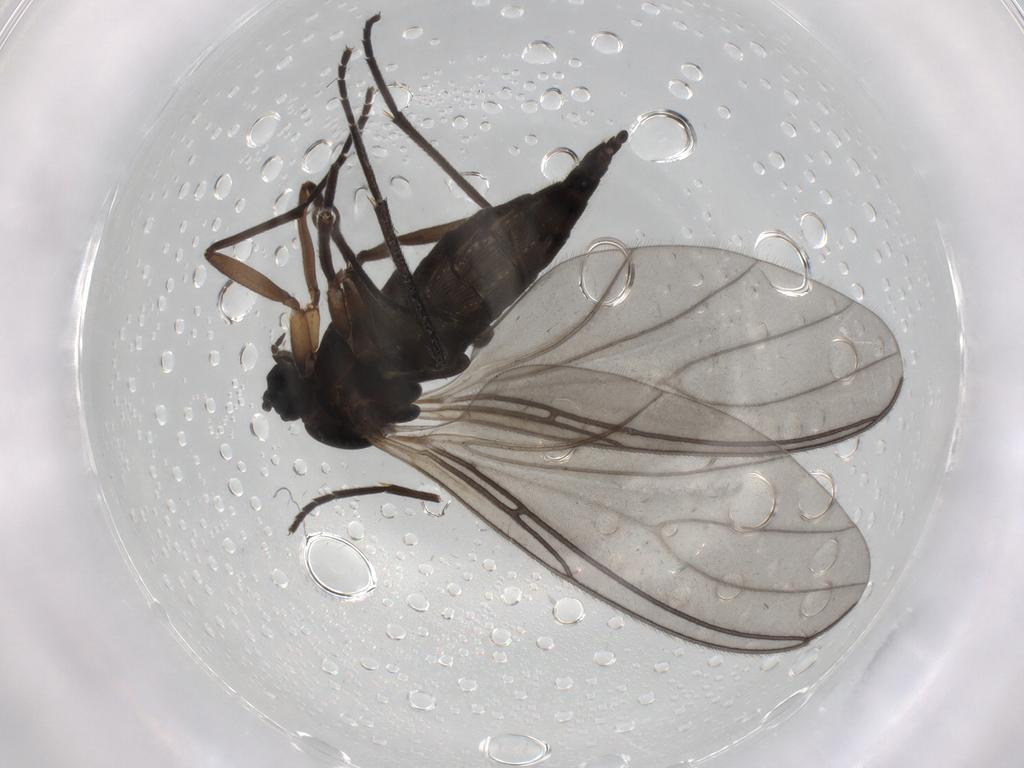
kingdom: Animalia
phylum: Arthropoda
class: Insecta
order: Diptera
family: Sciaridae
